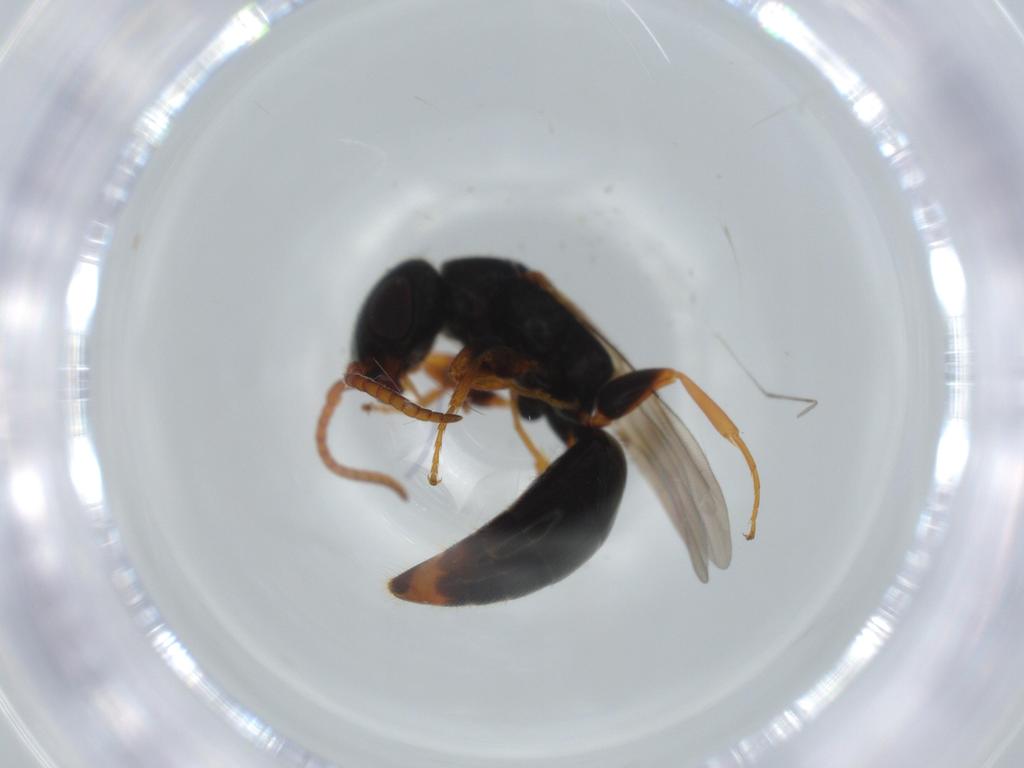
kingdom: Animalia
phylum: Arthropoda
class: Insecta
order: Hymenoptera
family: Bethylidae
